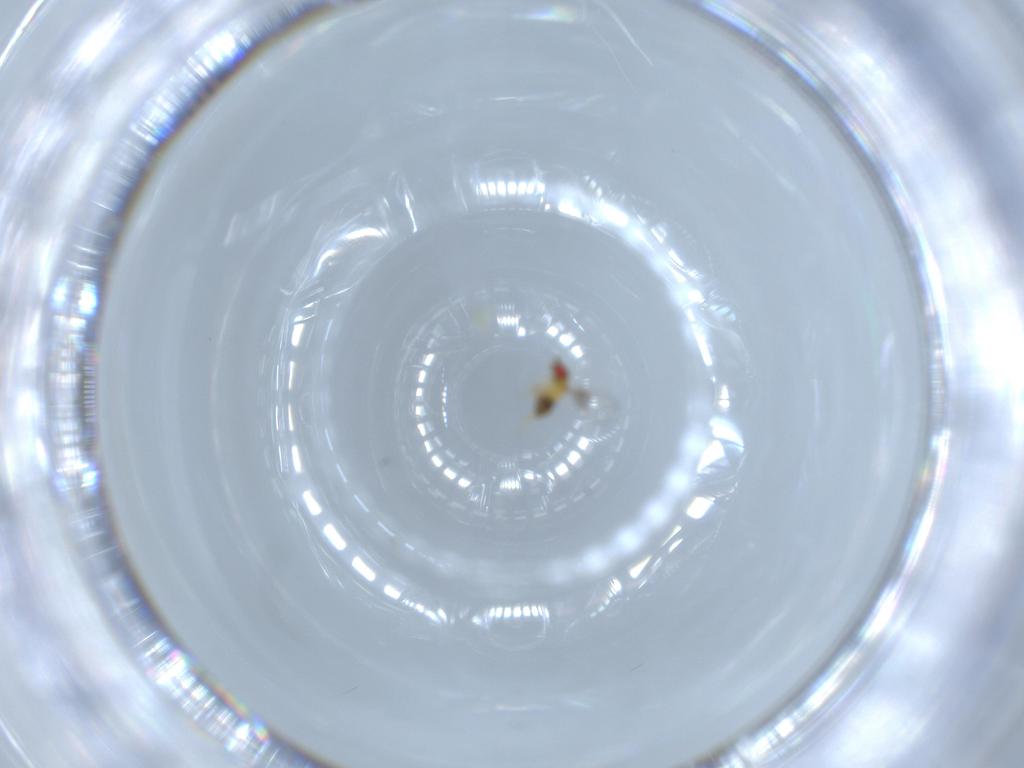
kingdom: Animalia
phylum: Arthropoda
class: Insecta
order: Hymenoptera
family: Trichogrammatidae
